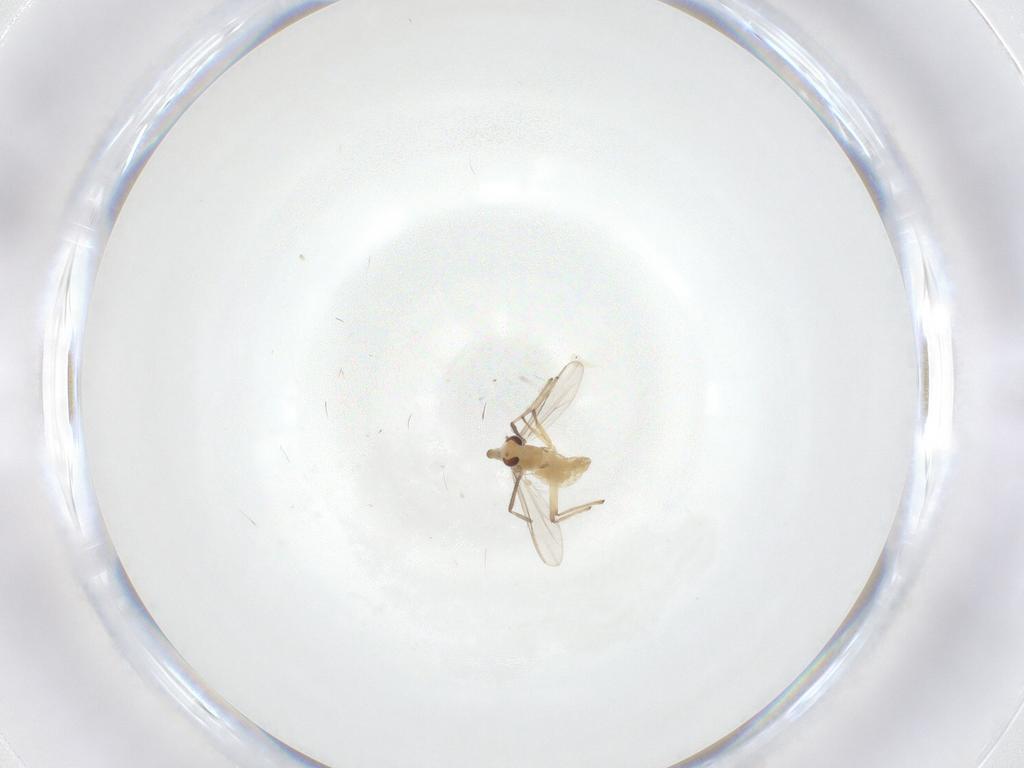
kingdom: Animalia
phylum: Arthropoda
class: Insecta
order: Diptera
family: Chironomidae
